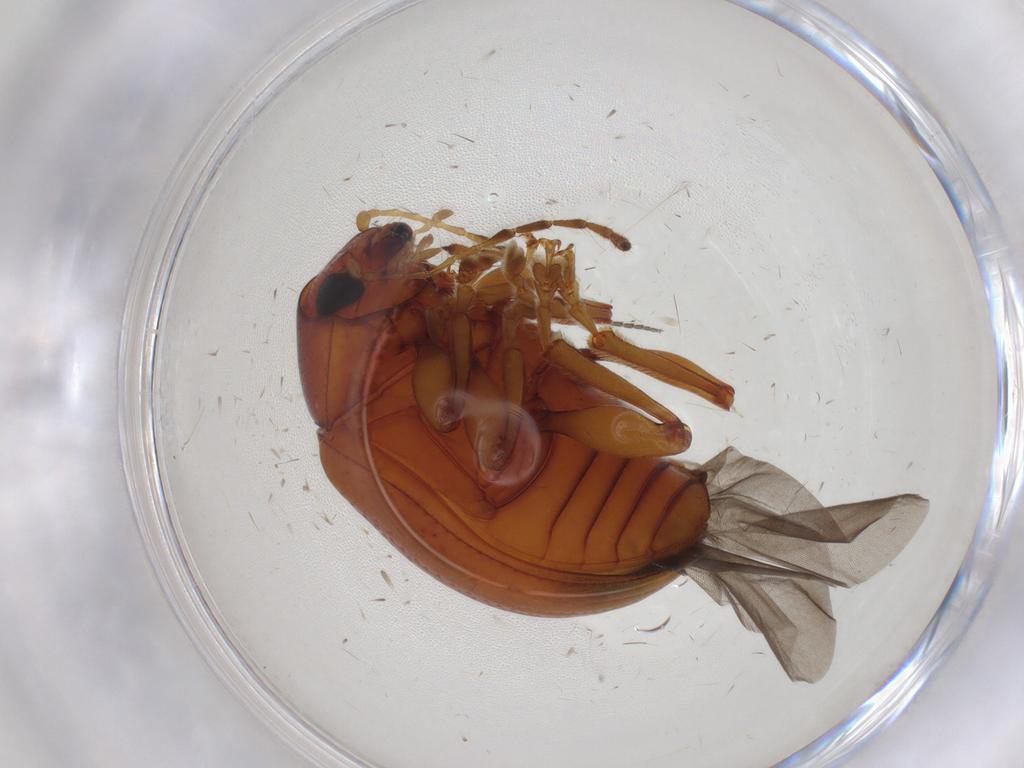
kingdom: Animalia
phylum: Arthropoda
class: Insecta
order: Coleoptera
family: Chrysomelidae
